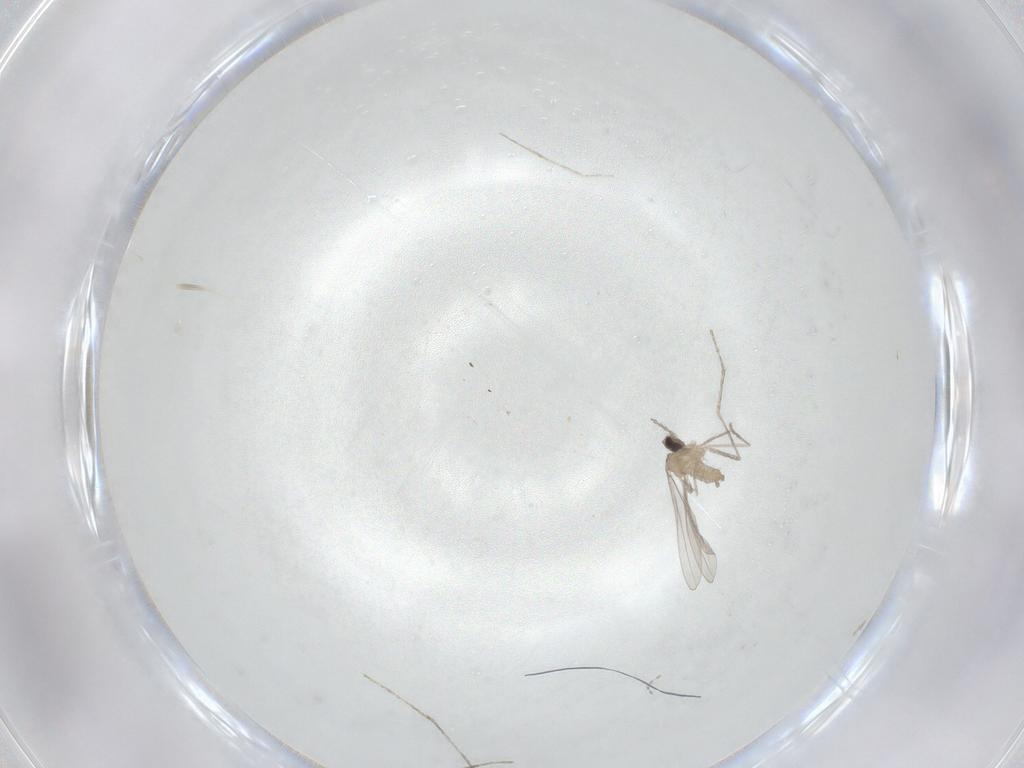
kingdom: Animalia
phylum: Arthropoda
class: Insecta
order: Diptera
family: Cecidomyiidae
